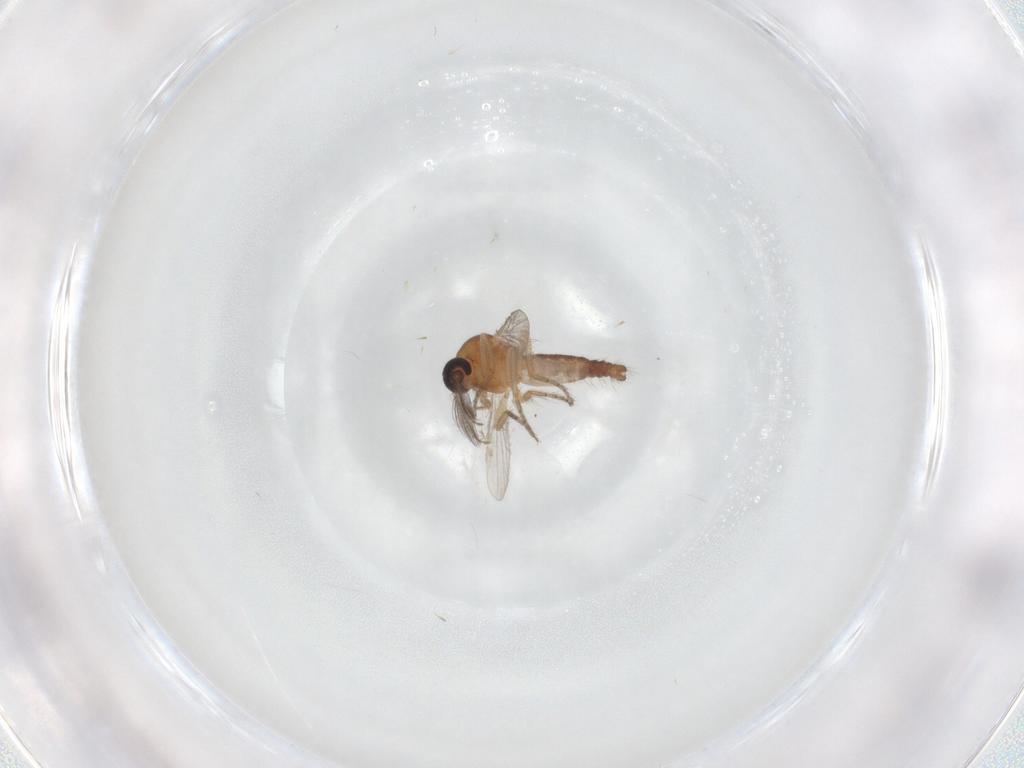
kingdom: Animalia
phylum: Arthropoda
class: Insecta
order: Diptera
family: Ceratopogonidae
